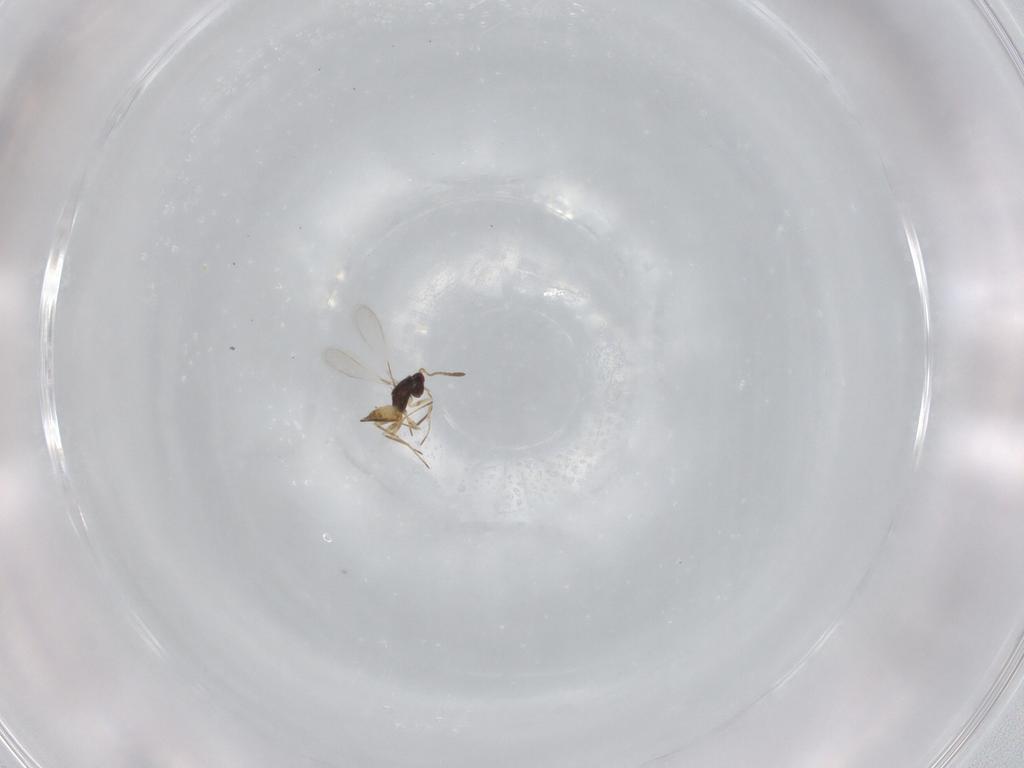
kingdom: Animalia
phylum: Arthropoda
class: Insecta
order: Hymenoptera
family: Mymaridae
